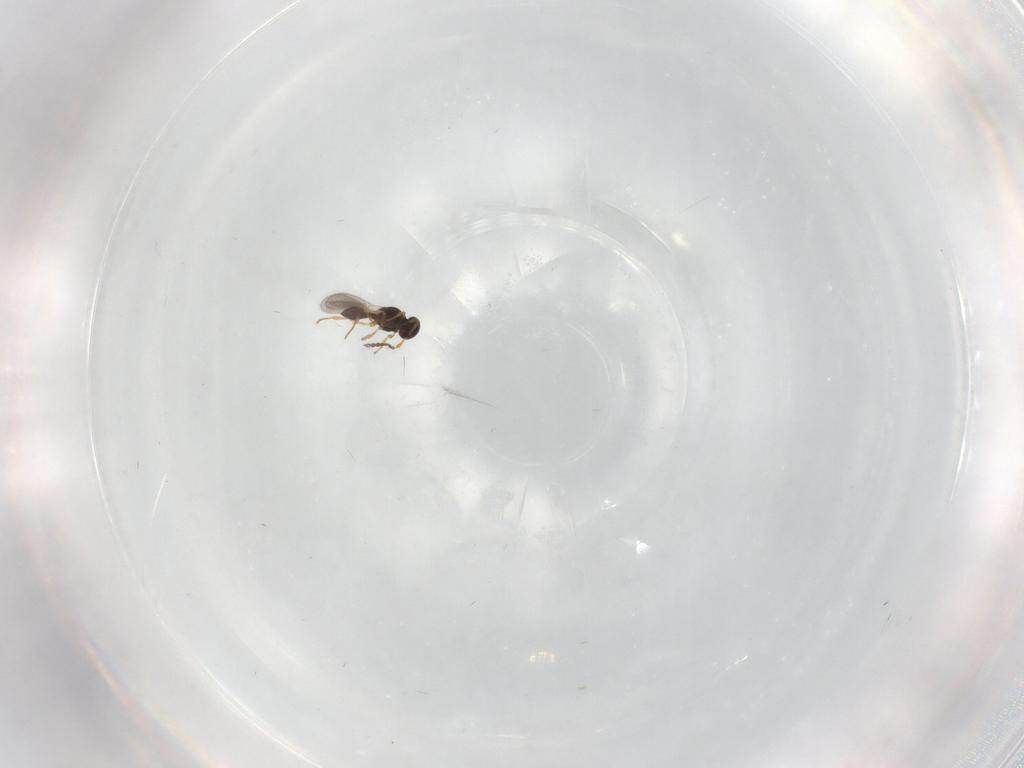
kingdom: Animalia
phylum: Arthropoda
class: Insecta
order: Hymenoptera
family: Platygastridae
